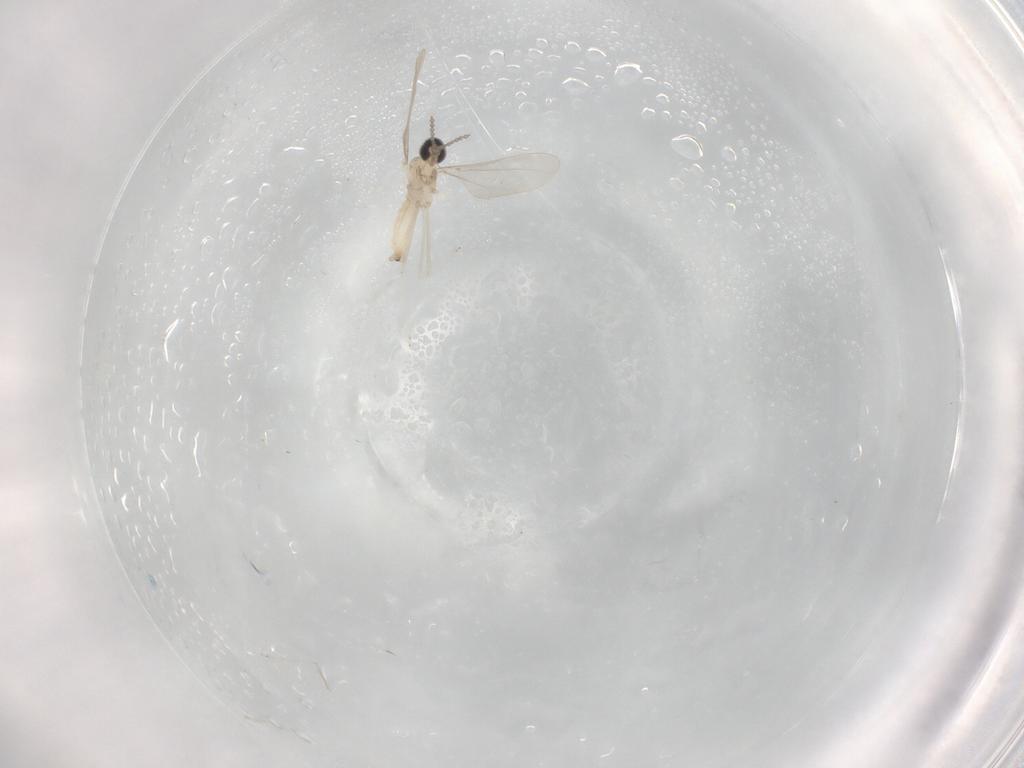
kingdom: Animalia
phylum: Arthropoda
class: Insecta
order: Diptera
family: Cecidomyiidae
